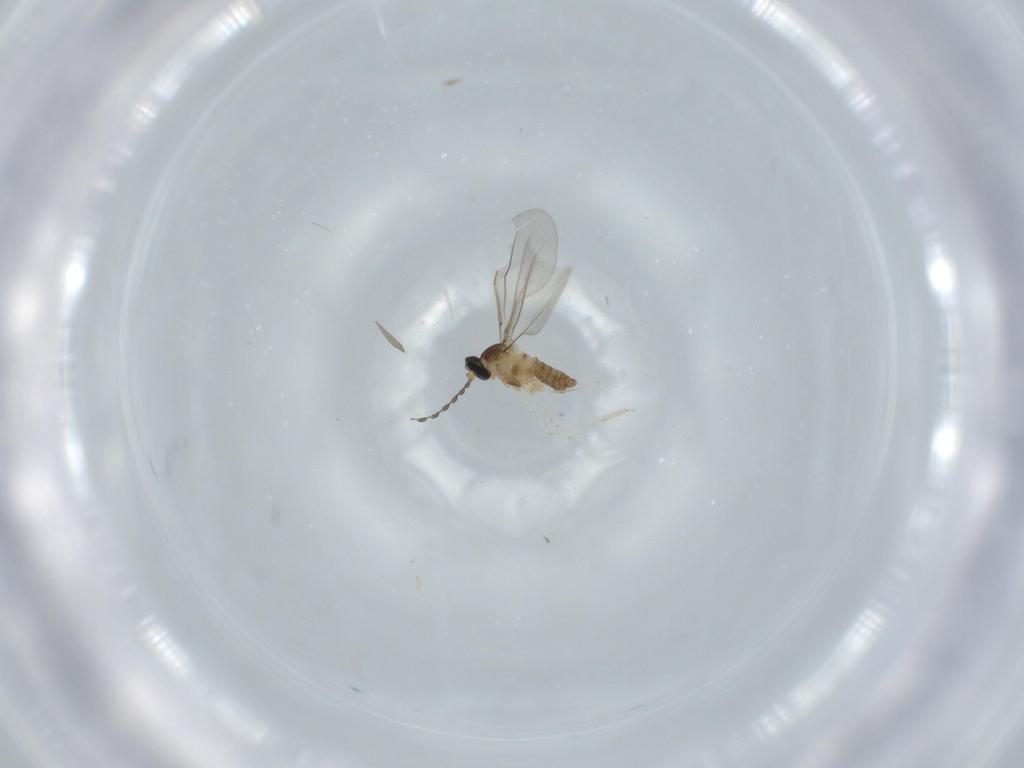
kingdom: Animalia
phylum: Arthropoda
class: Insecta
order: Diptera
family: Cecidomyiidae
